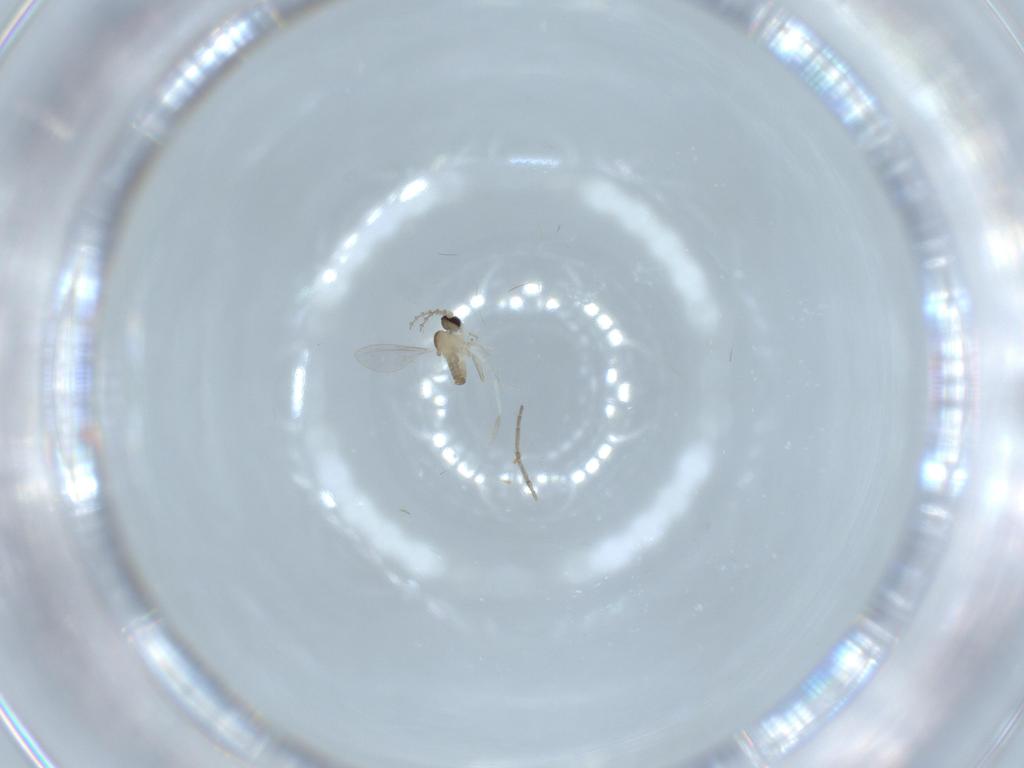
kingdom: Animalia
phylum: Arthropoda
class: Insecta
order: Diptera
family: Cecidomyiidae
